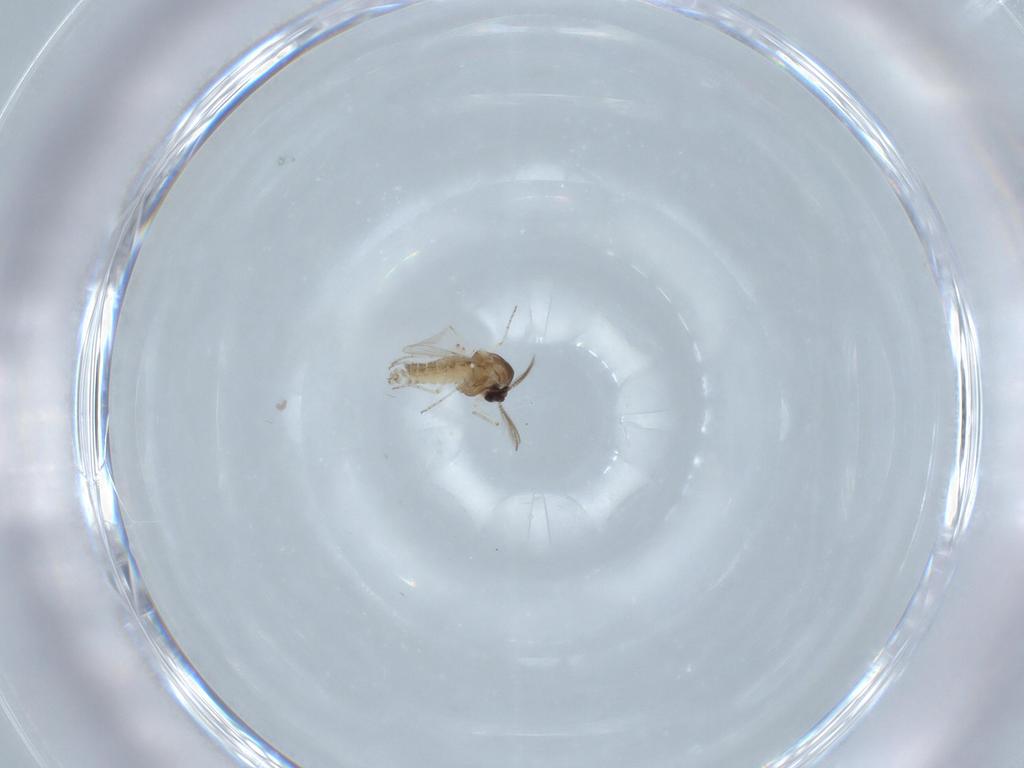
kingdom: Animalia
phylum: Arthropoda
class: Insecta
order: Diptera
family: Ceratopogonidae
